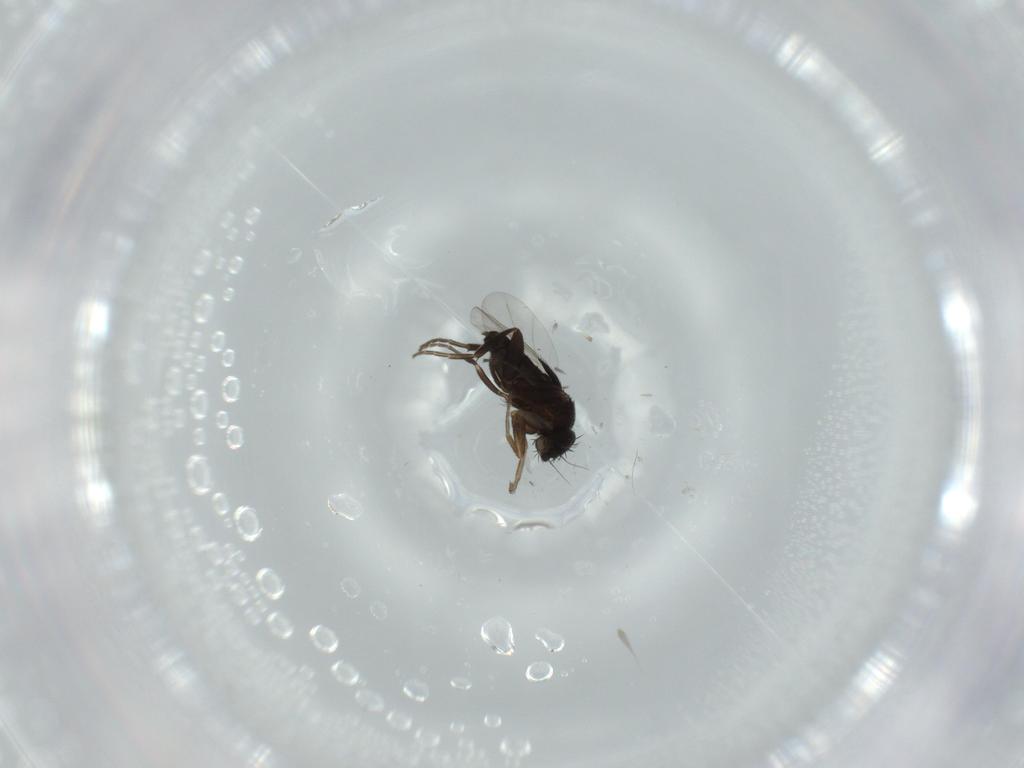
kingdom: Animalia
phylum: Arthropoda
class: Insecta
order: Diptera
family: Phoridae
